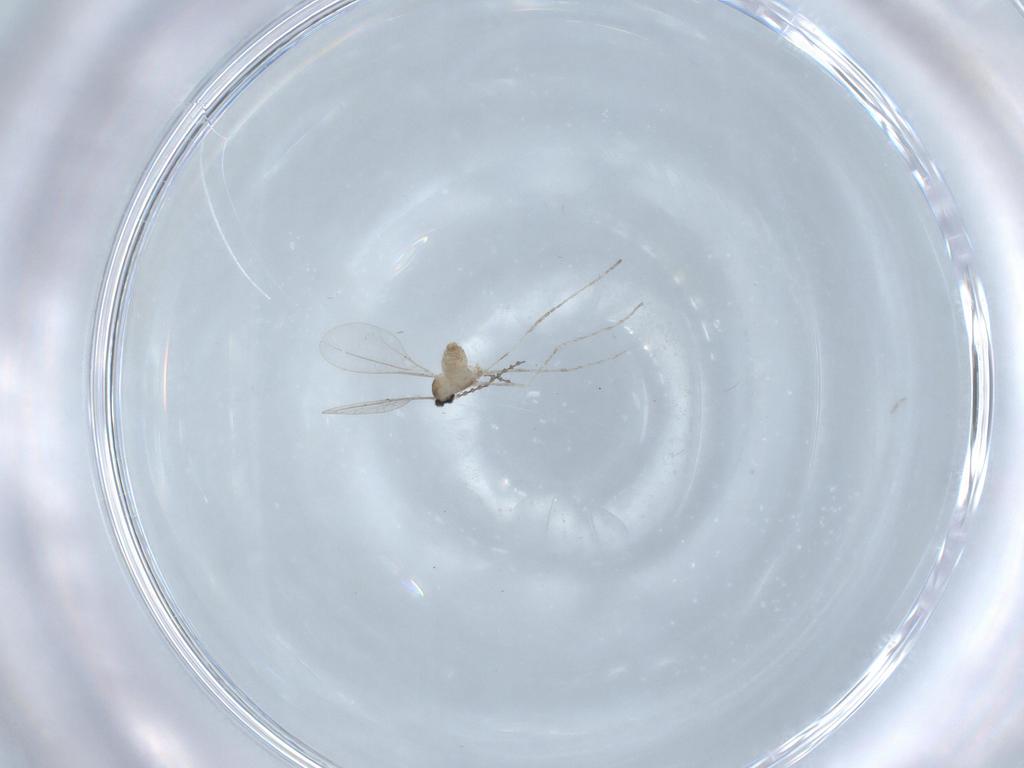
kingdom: Animalia
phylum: Arthropoda
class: Insecta
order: Diptera
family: Cecidomyiidae
